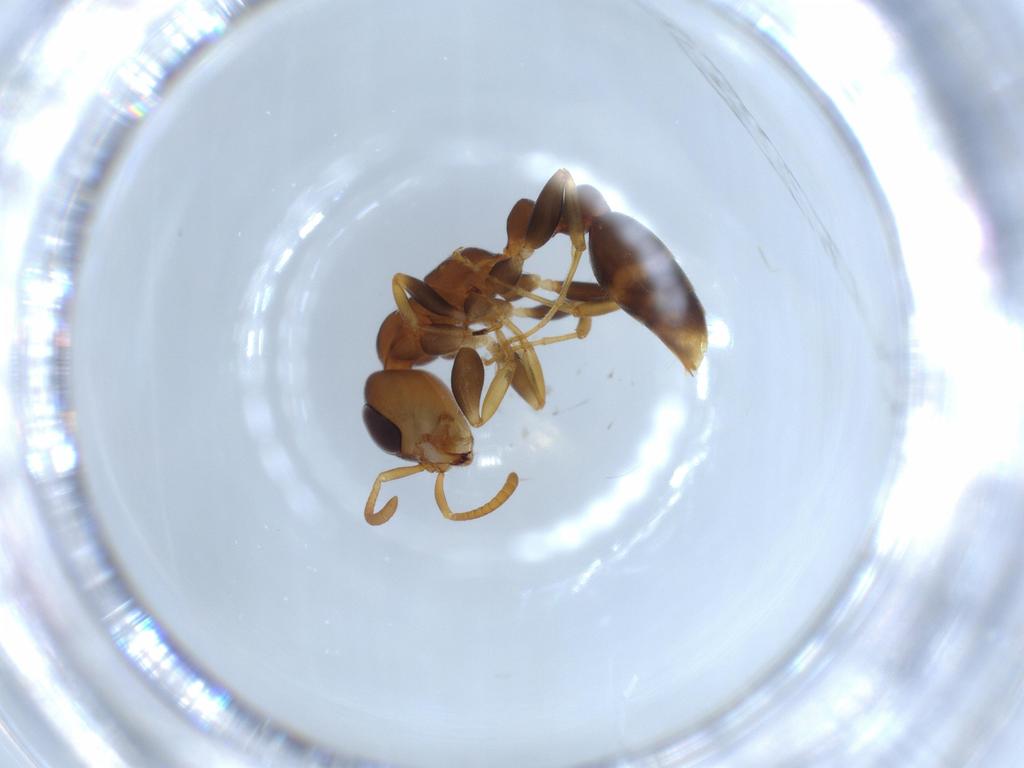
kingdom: Animalia
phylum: Arthropoda
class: Insecta
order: Hymenoptera
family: Formicidae
